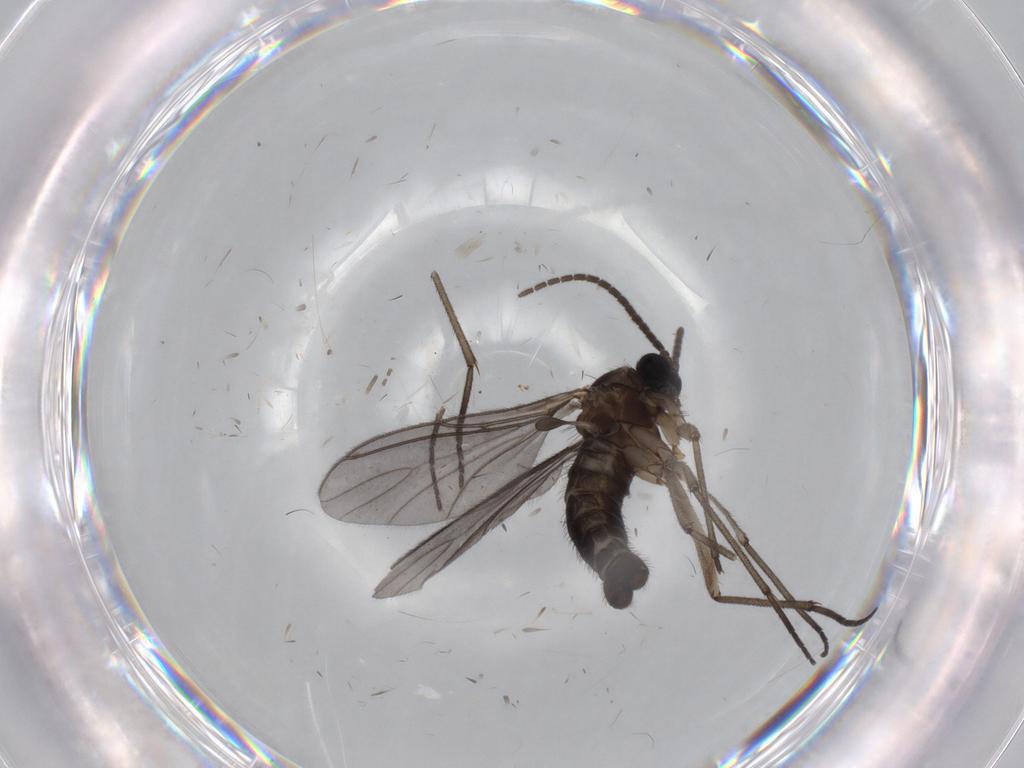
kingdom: Animalia
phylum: Arthropoda
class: Insecta
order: Diptera
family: Sciaridae
